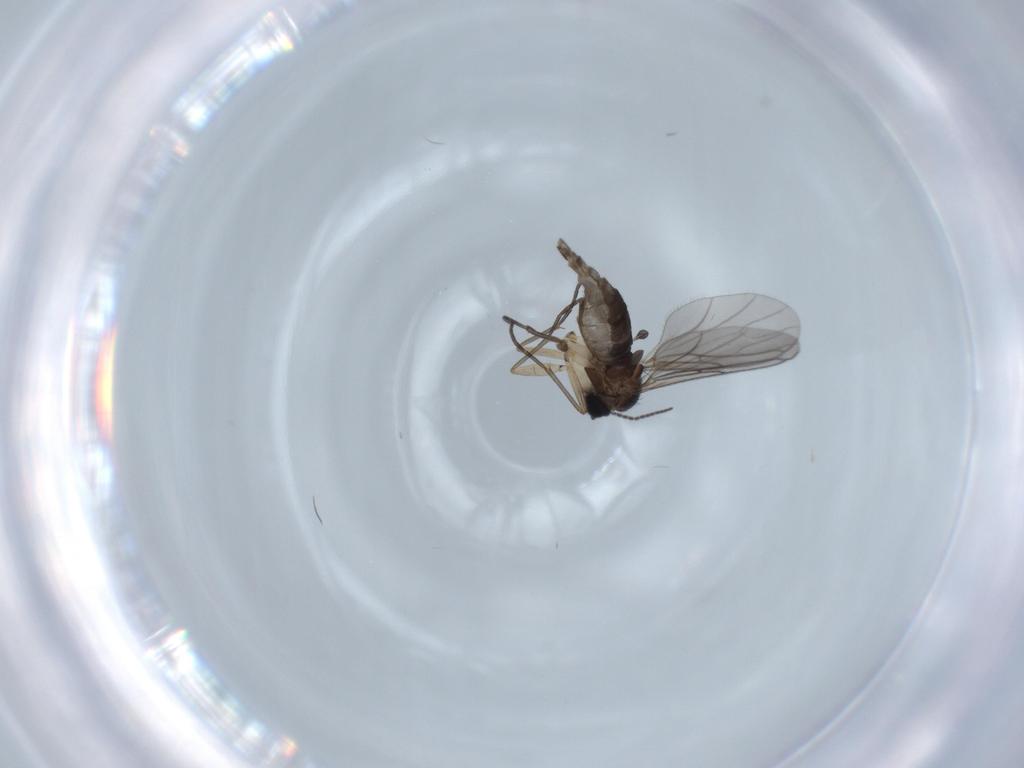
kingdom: Animalia
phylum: Arthropoda
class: Insecta
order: Diptera
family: Sciaridae
